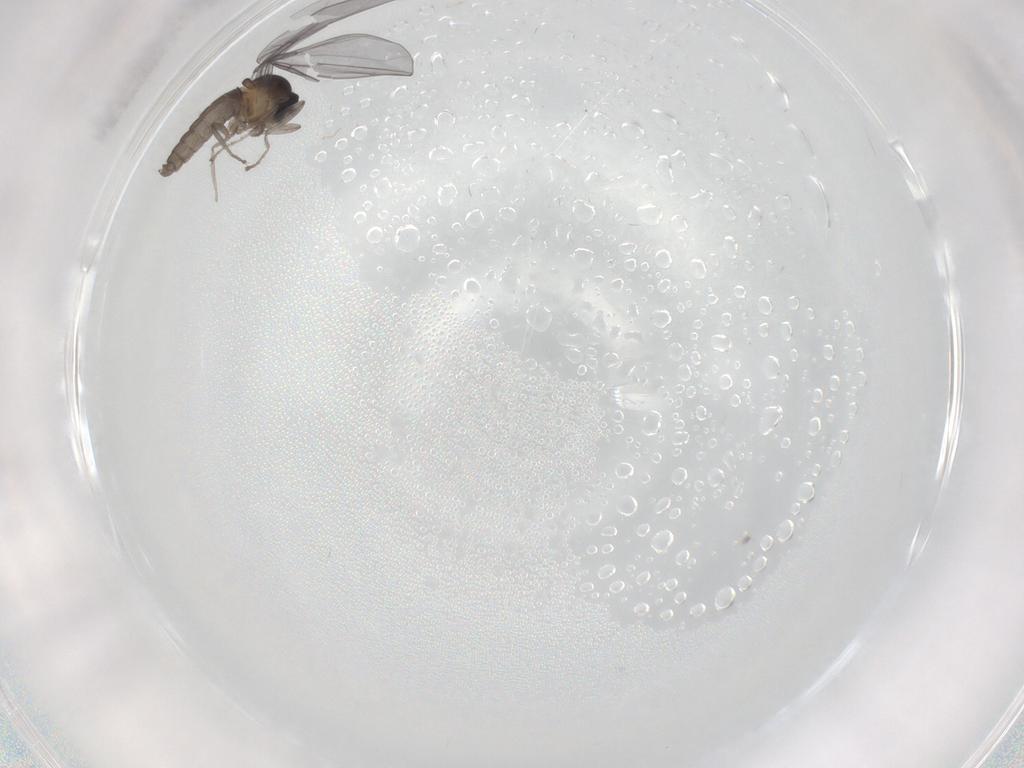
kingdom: Animalia
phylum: Arthropoda
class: Insecta
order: Diptera
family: Cecidomyiidae
